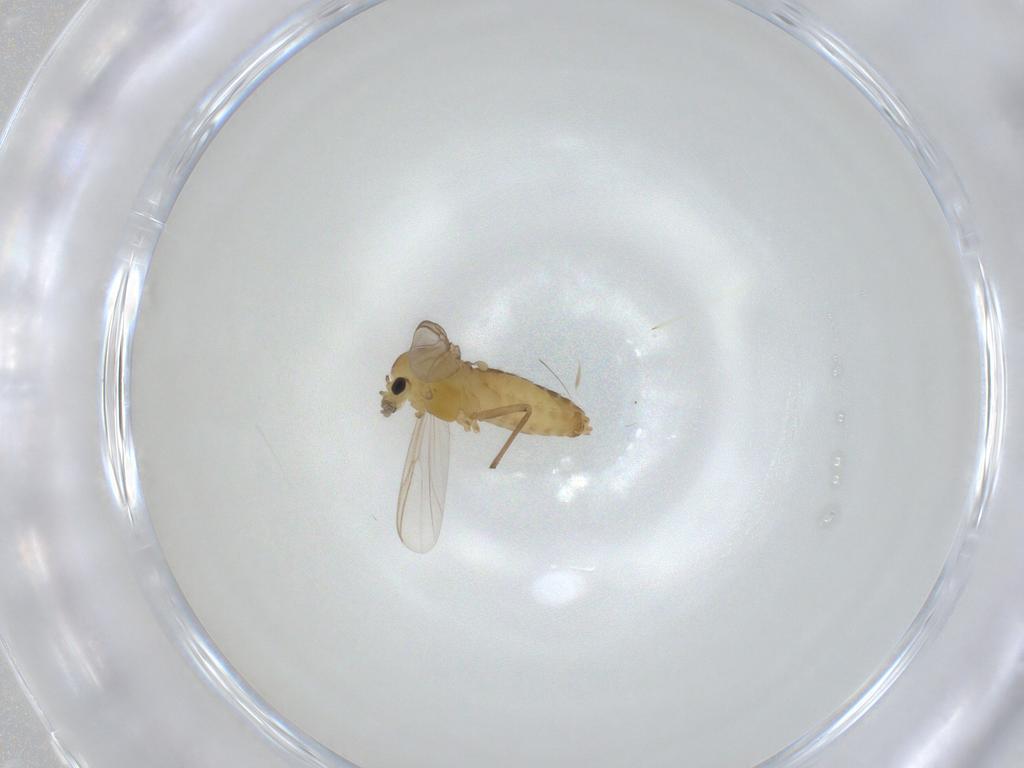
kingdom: Animalia
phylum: Arthropoda
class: Insecta
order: Diptera
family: Chironomidae
